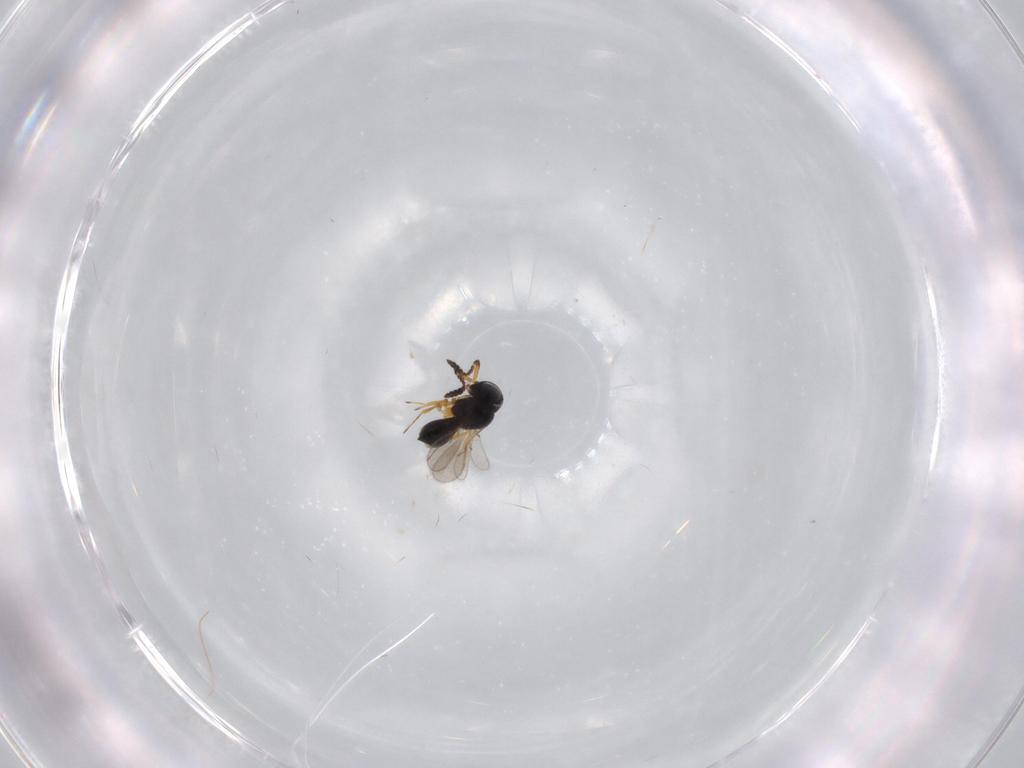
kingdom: Animalia
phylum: Arthropoda
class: Insecta
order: Hymenoptera
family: Scelionidae
